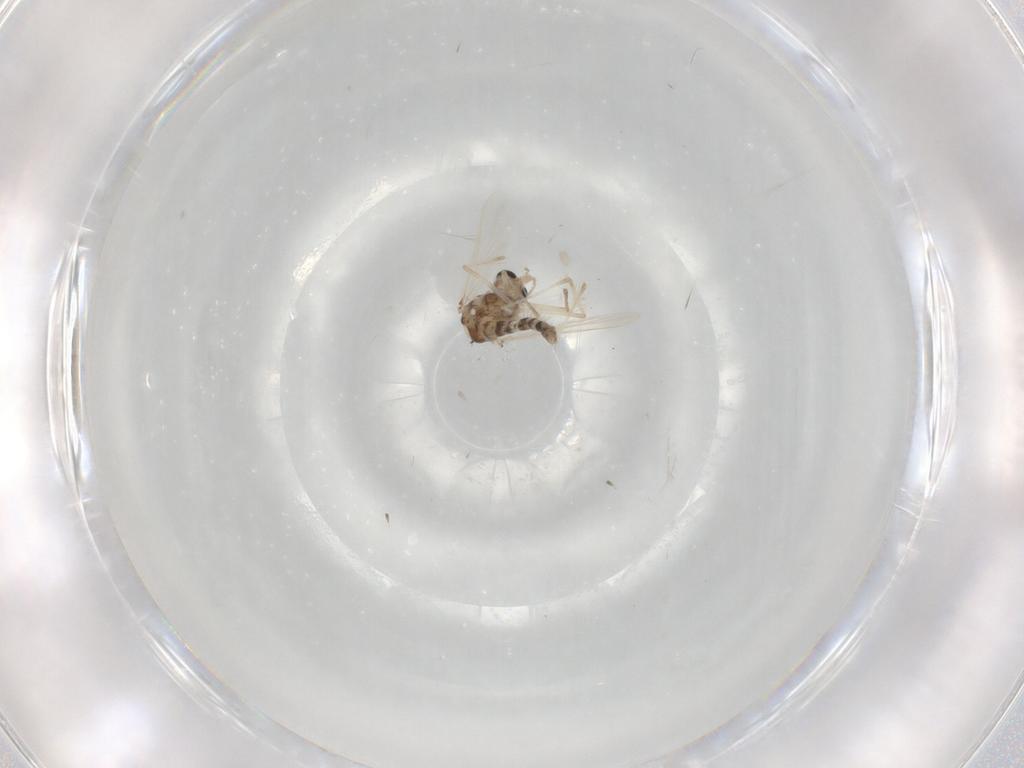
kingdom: Animalia
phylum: Arthropoda
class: Insecta
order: Diptera
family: Chironomidae
